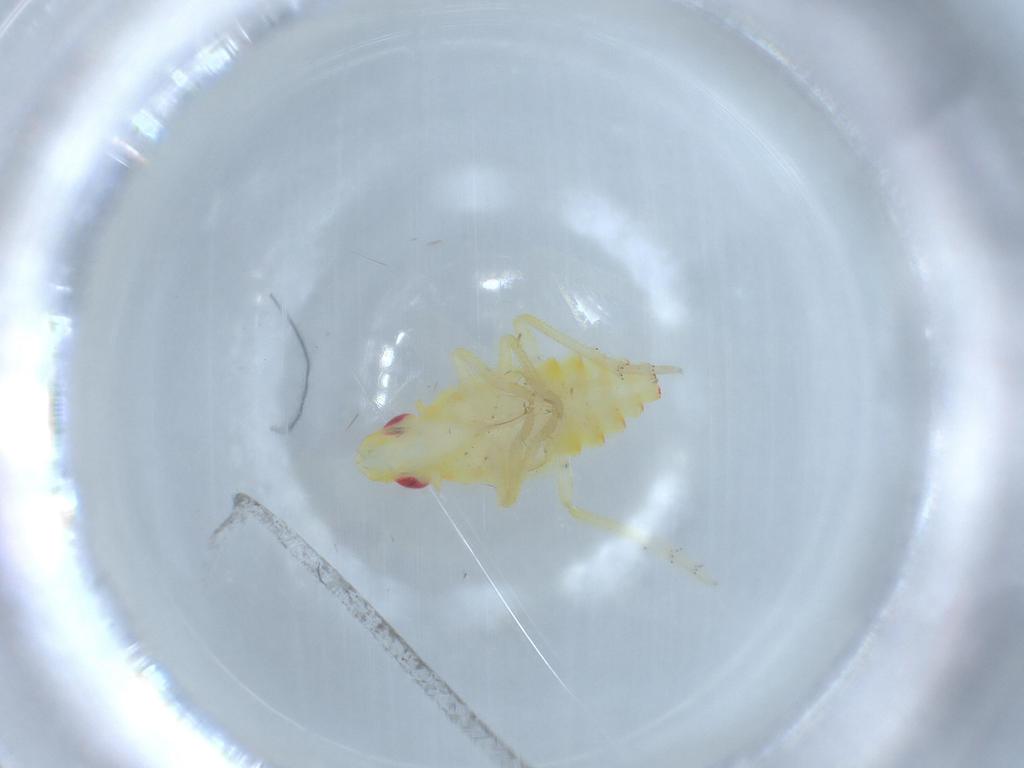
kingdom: Animalia
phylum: Arthropoda
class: Insecta
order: Hemiptera
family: Tropiduchidae
